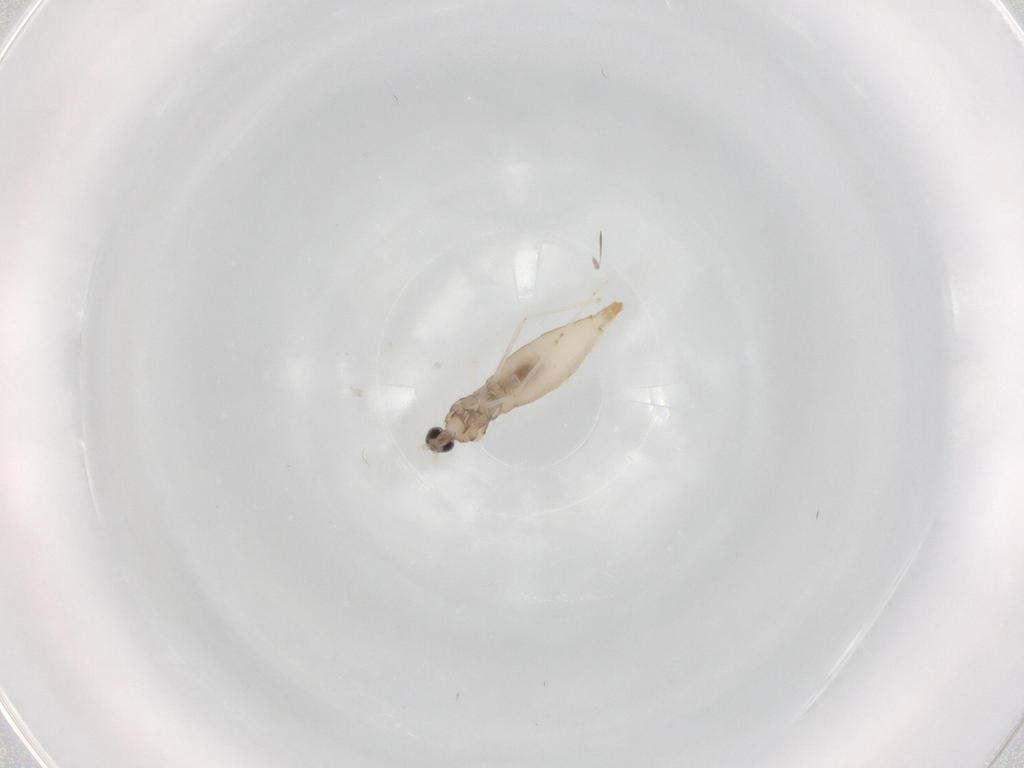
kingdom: Animalia
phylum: Arthropoda
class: Insecta
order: Diptera
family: Cecidomyiidae
